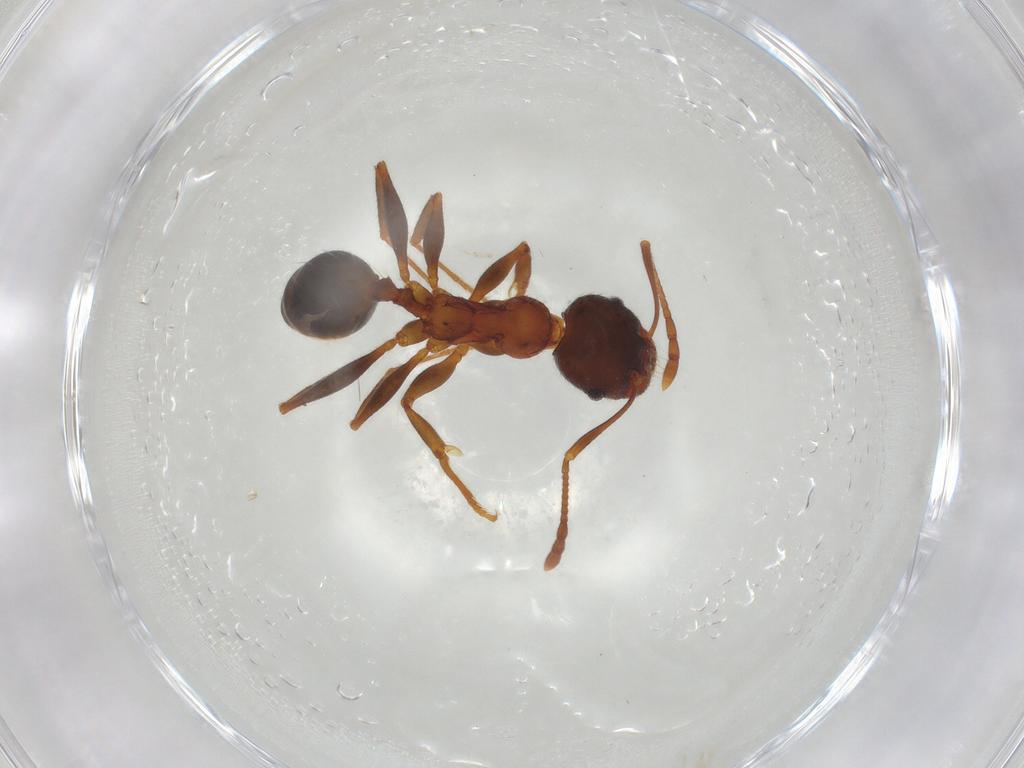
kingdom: Animalia
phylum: Arthropoda
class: Insecta
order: Hymenoptera
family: Formicidae
